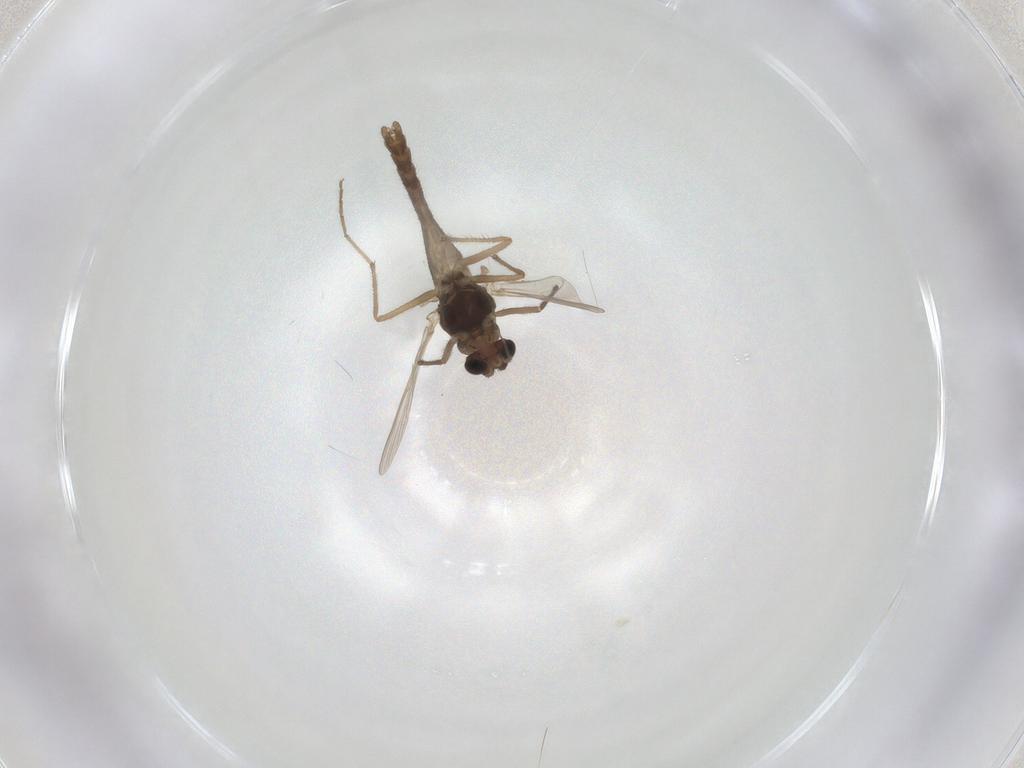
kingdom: Animalia
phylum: Arthropoda
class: Insecta
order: Diptera
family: Chironomidae
